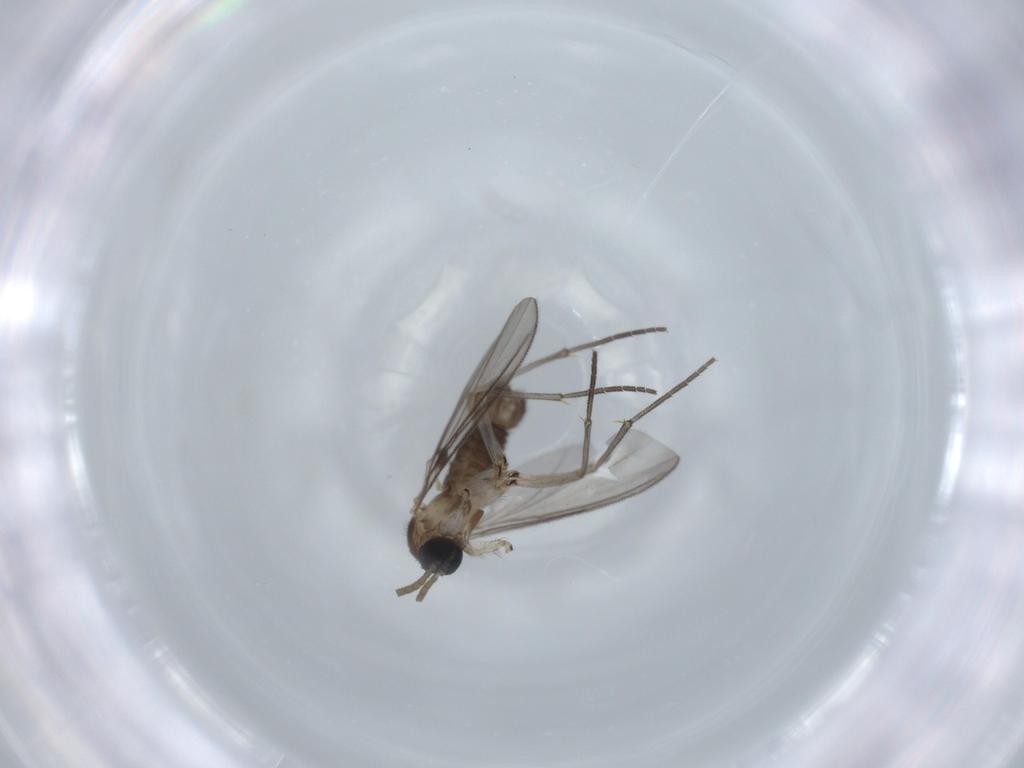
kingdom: Animalia
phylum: Arthropoda
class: Insecta
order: Diptera
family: Sciaridae
